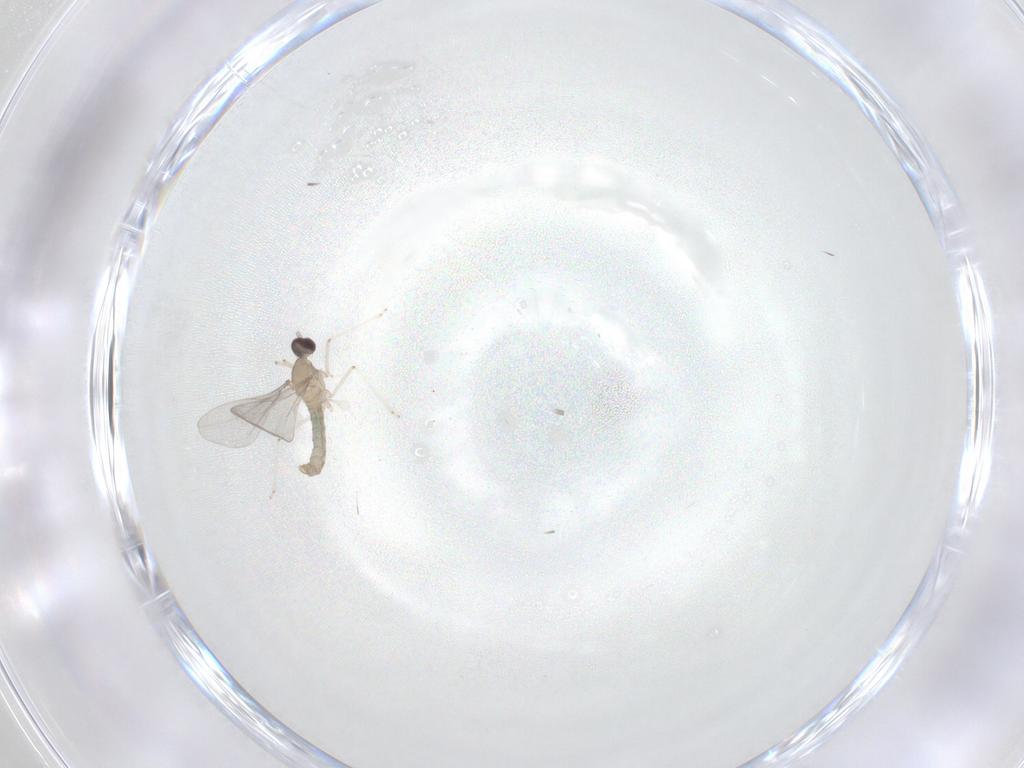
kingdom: Animalia
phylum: Arthropoda
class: Insecta
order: Diptera
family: Cecidomyiidae
